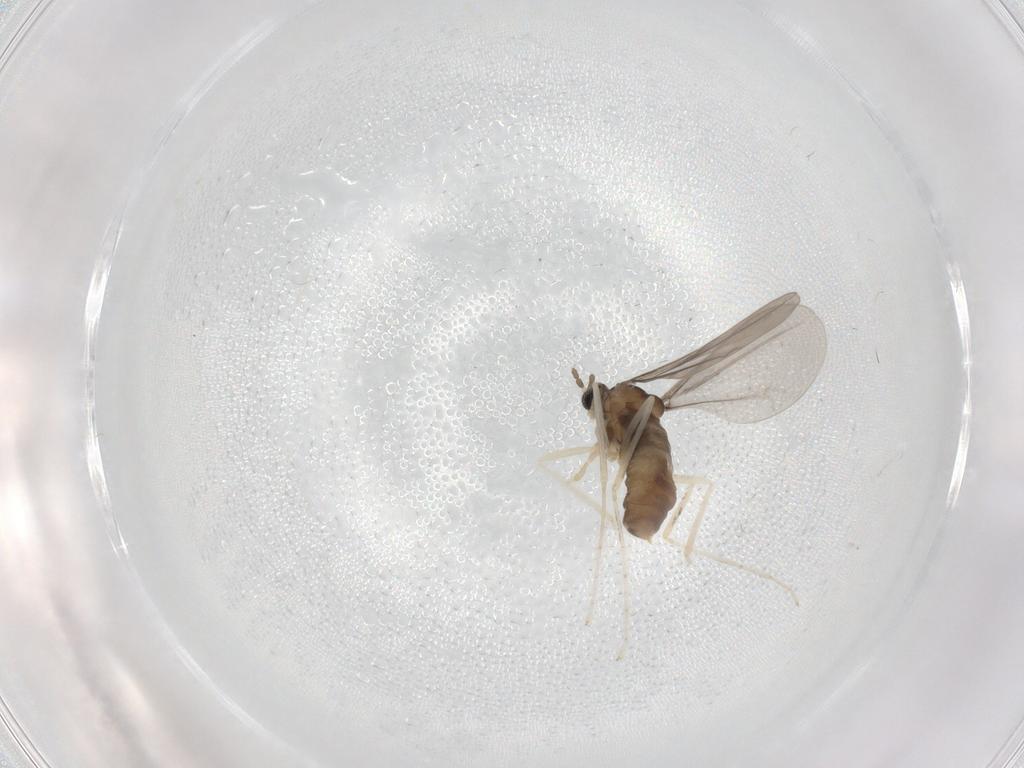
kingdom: Animalia
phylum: Arthropoda
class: Insecta
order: Diptera
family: Cecidomyiidae
